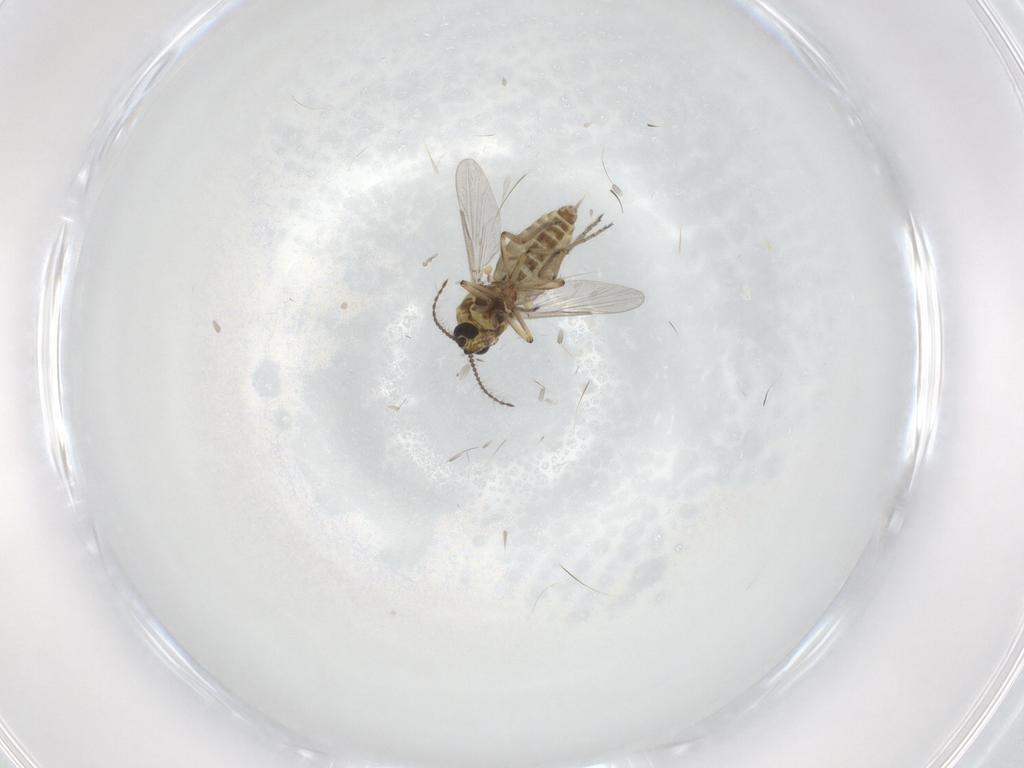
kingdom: Animalia
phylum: Arthropoda
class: Insecta
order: Diptera
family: Ceratopogonidae
